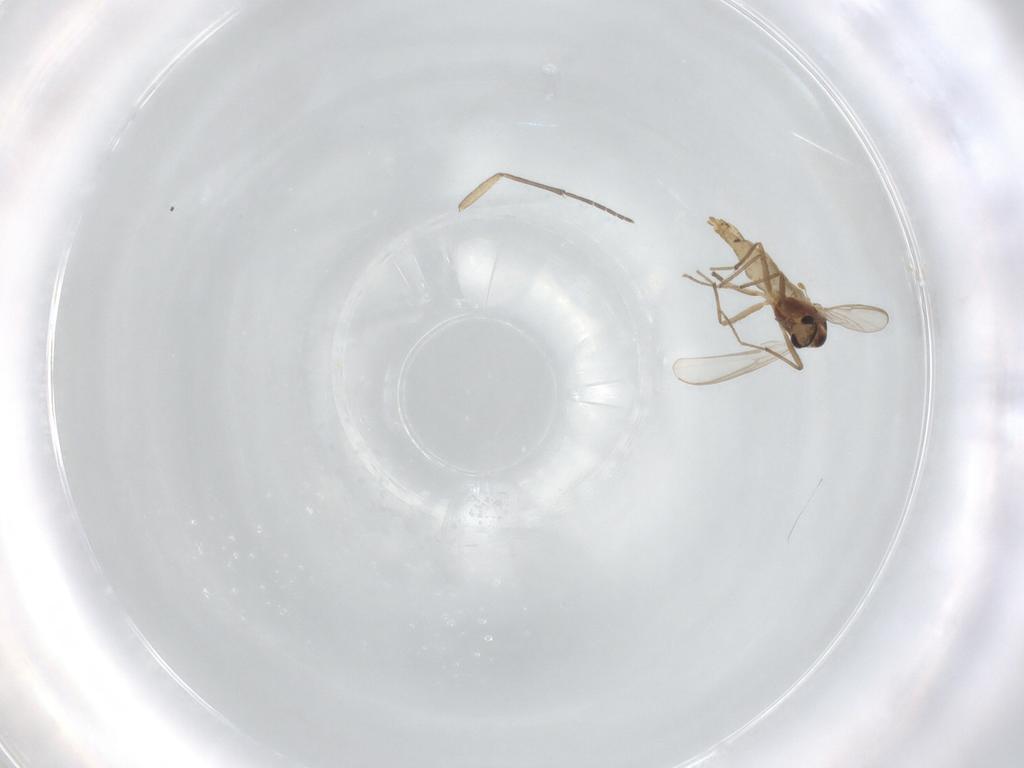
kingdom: Animalia
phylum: Arthropoda
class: Insecta
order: Diptera
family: Chironomidae
